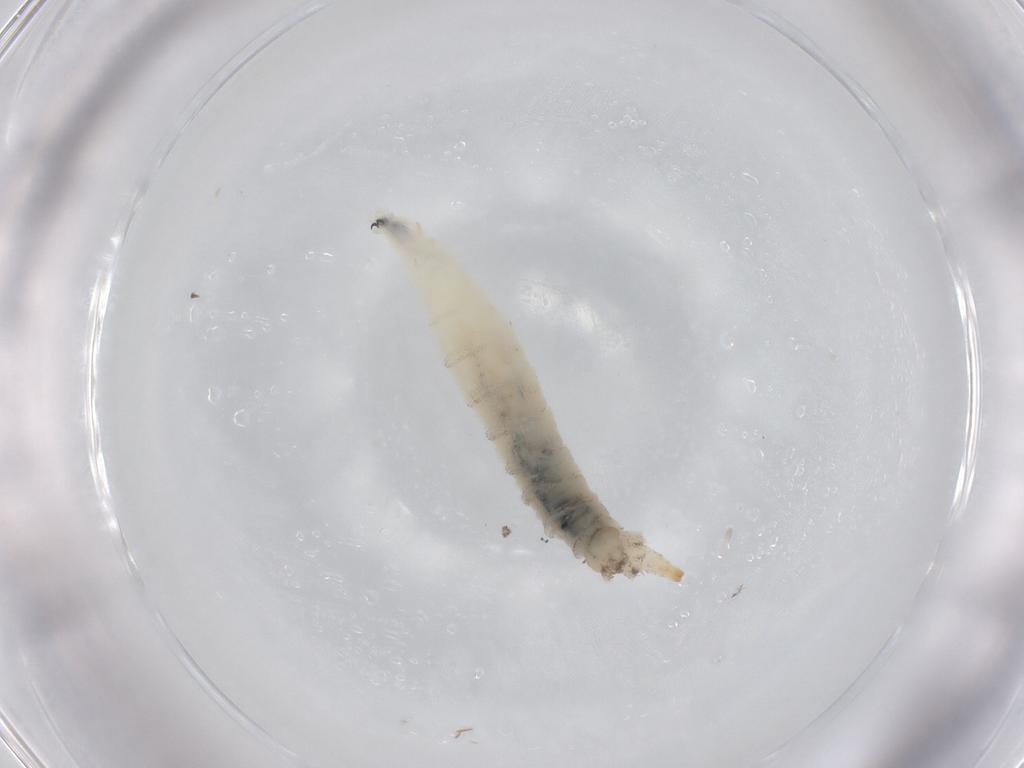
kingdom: Animalia
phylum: Arthropoda
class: Insecta
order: Diptera
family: Drosophilidae
